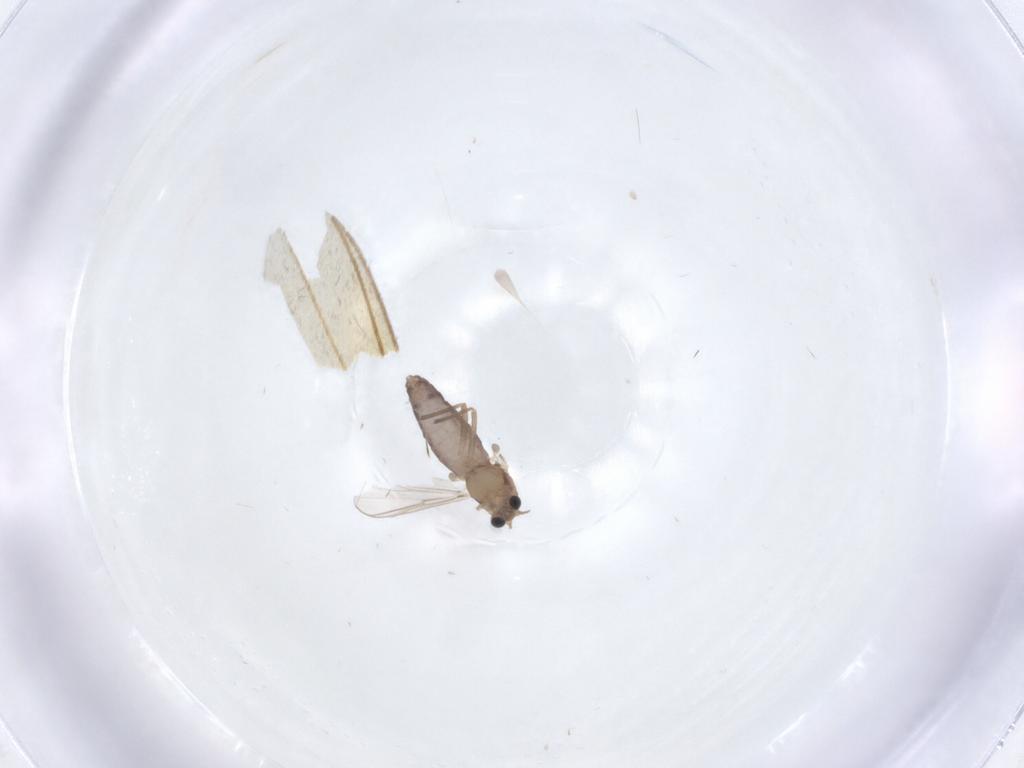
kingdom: Animalia
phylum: Arthropoda
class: Insecta
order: Diptera
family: Chironomidae
